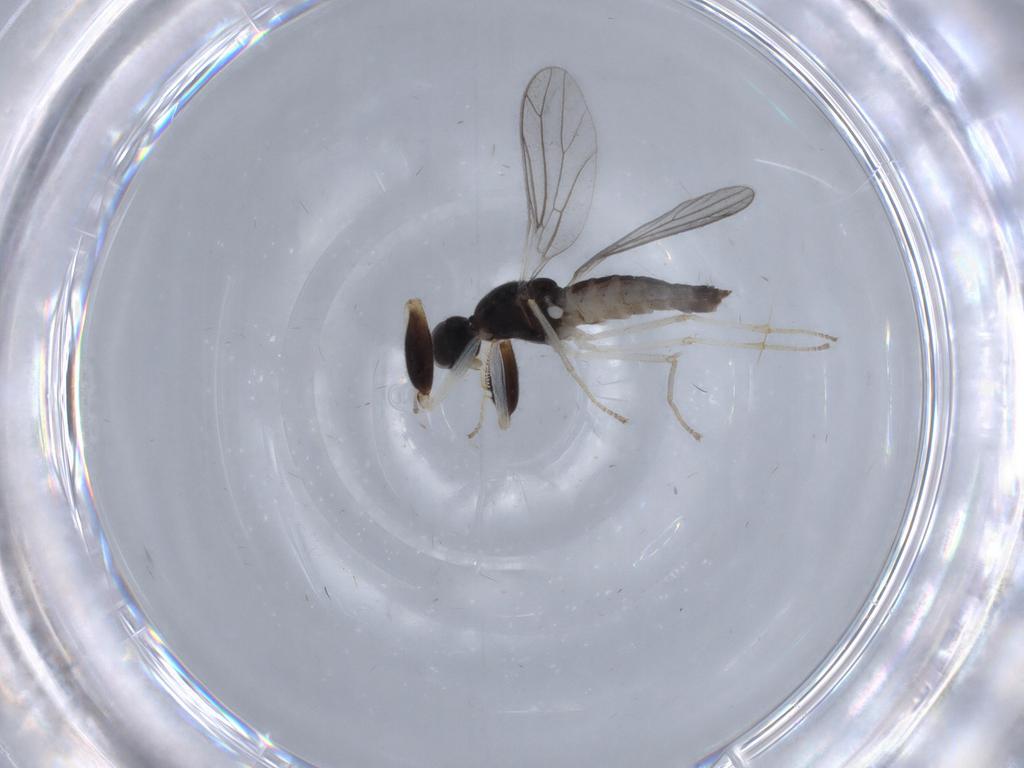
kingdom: Animalia
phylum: Arthropoda
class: Insecta
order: Diptera
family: Empididae
